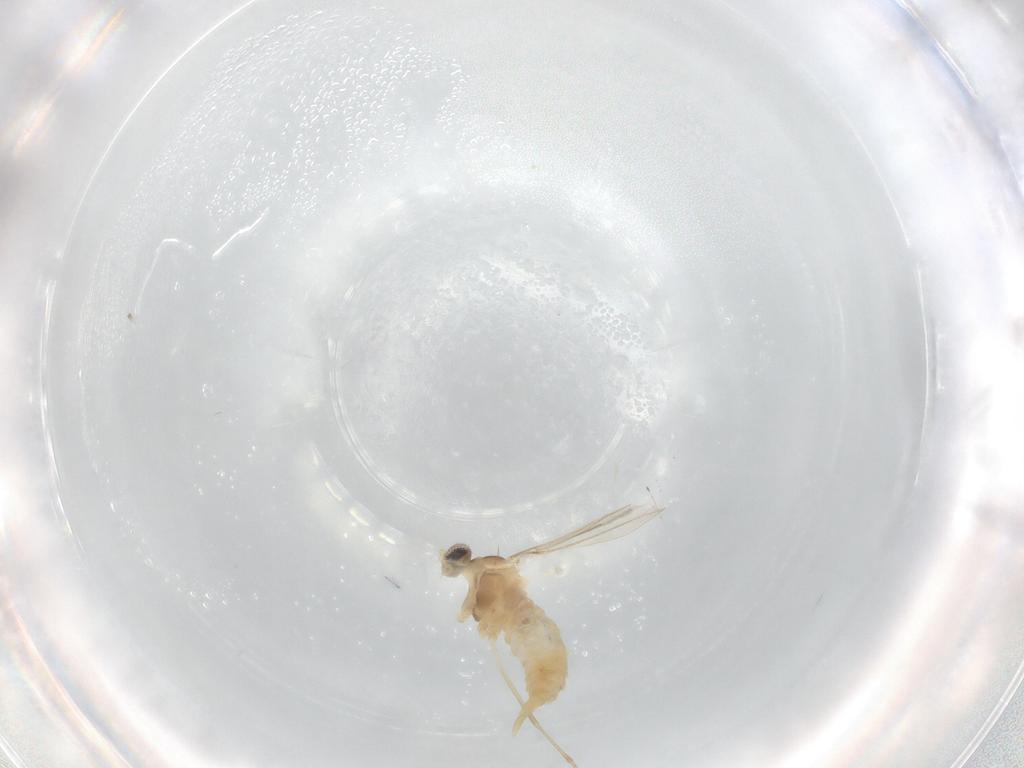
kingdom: Animalia
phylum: Arthropoda
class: Insecta
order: Diptera
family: Cecidomyiidae
